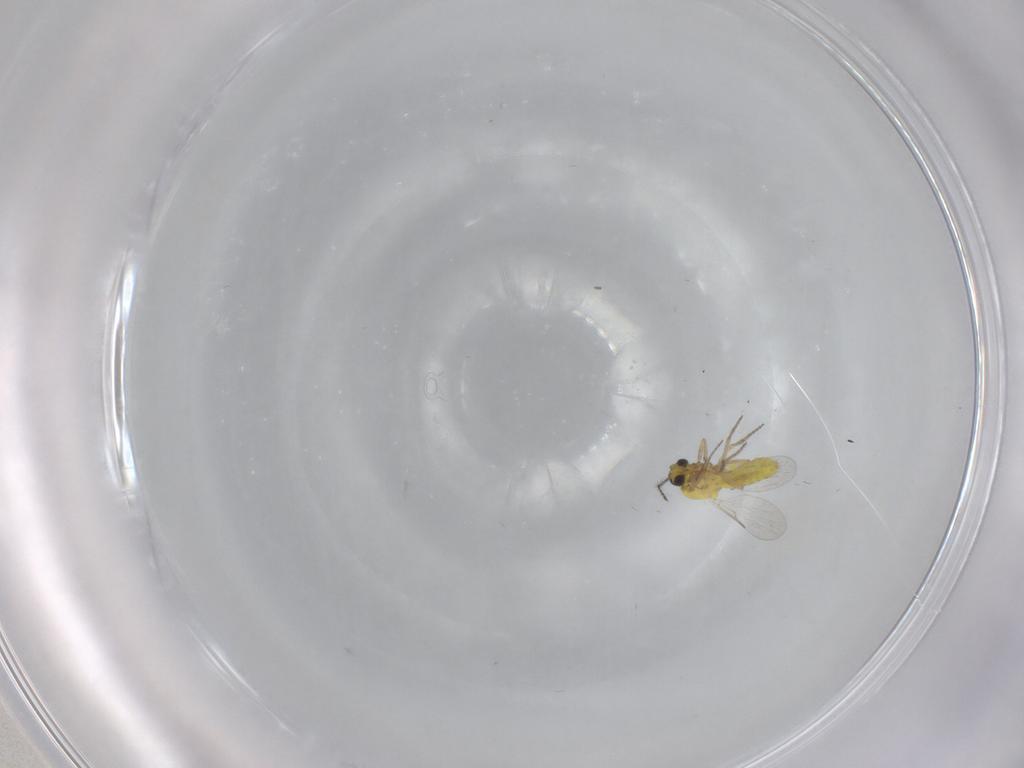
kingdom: Animalia
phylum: Arthropoda
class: Insecta
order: Diptera
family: Ceratopogonidae
